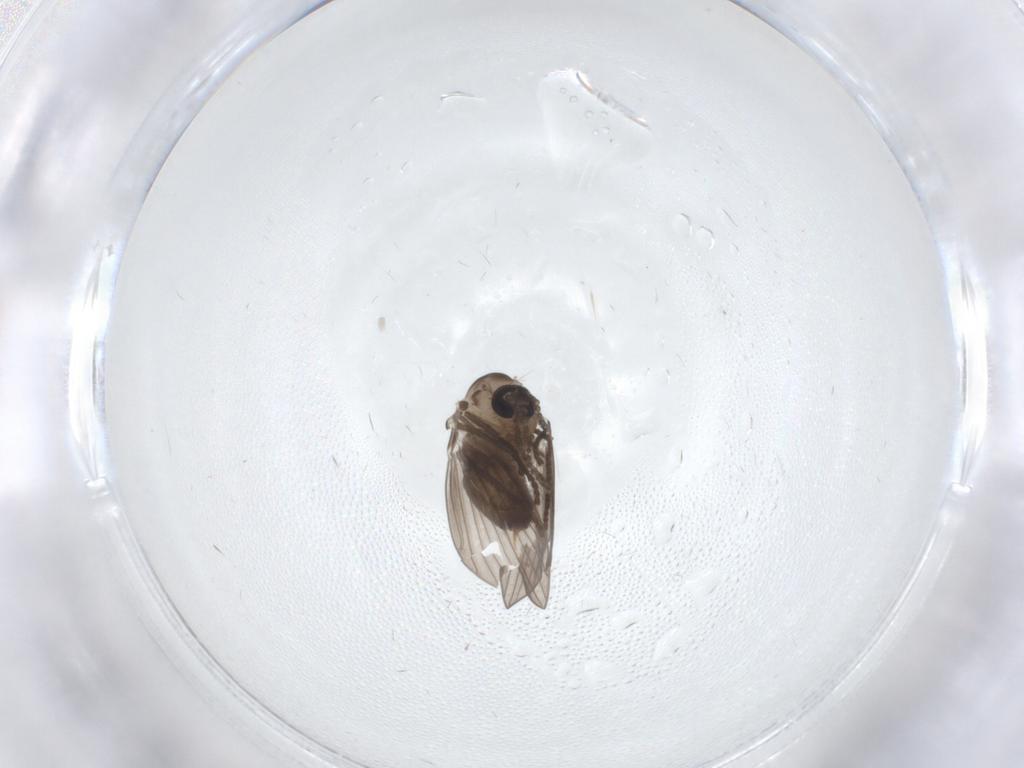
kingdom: Animalia
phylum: Arthropoda
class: Insecta
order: Diptera
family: Psychodidae
